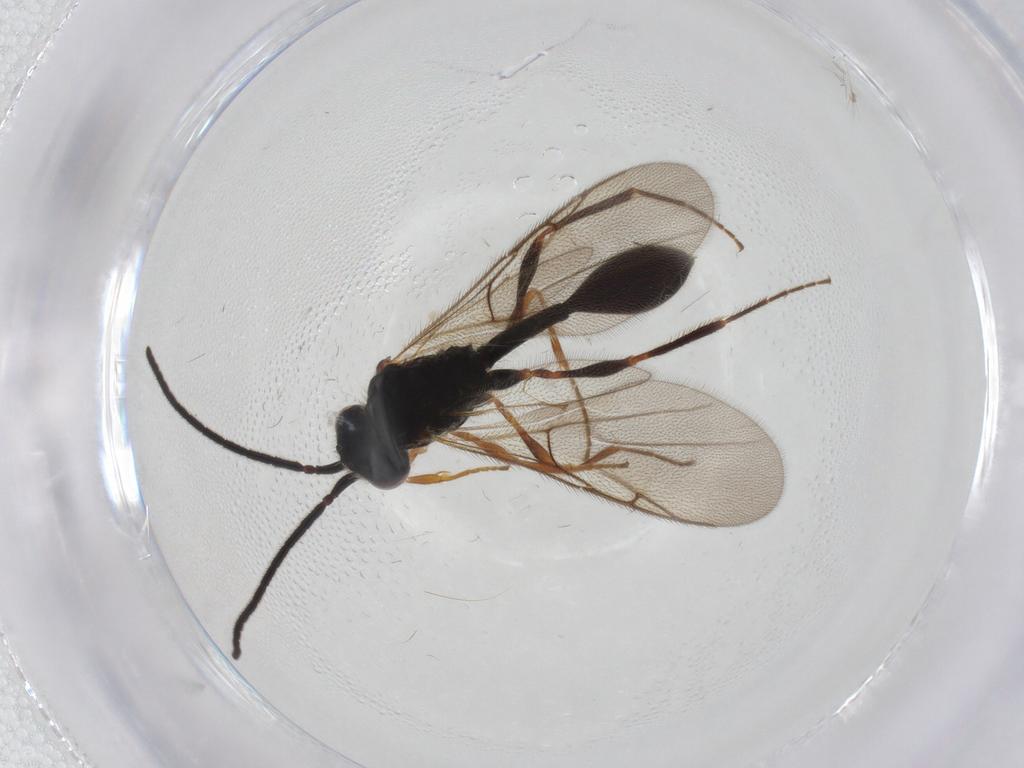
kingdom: Animalia
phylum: Arthropoda
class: Insecta
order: Hymenoptera
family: Diapriidae
